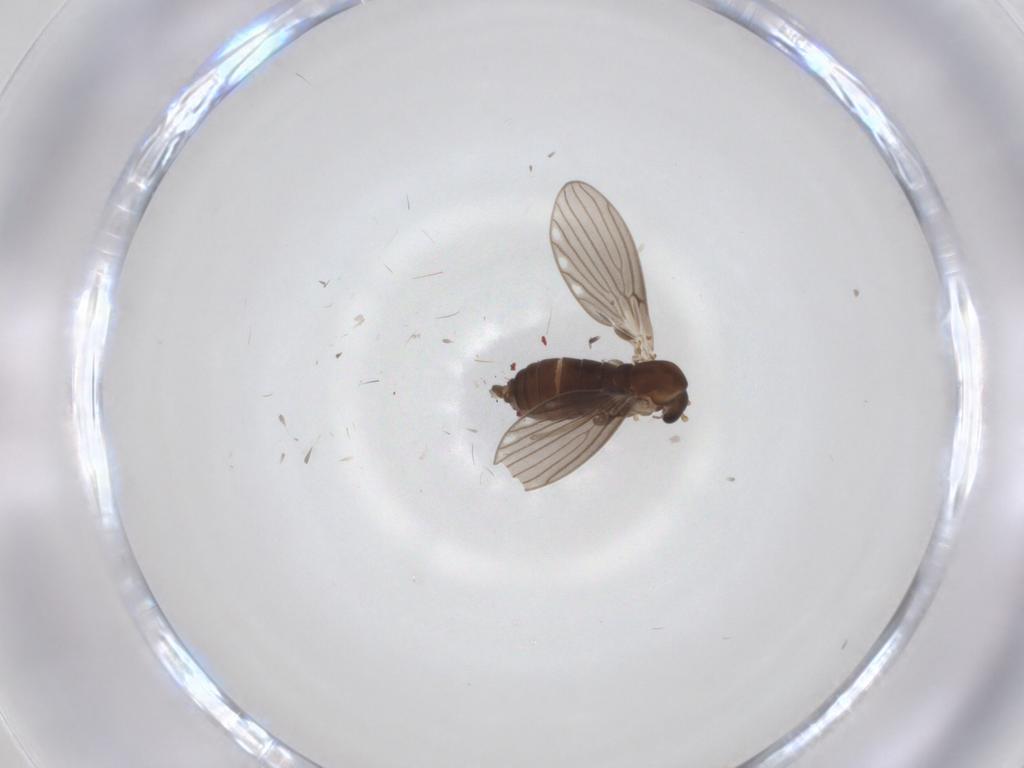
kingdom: Animalia
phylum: Arthropoda
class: Insecta
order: Diptera
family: Psychodidae
